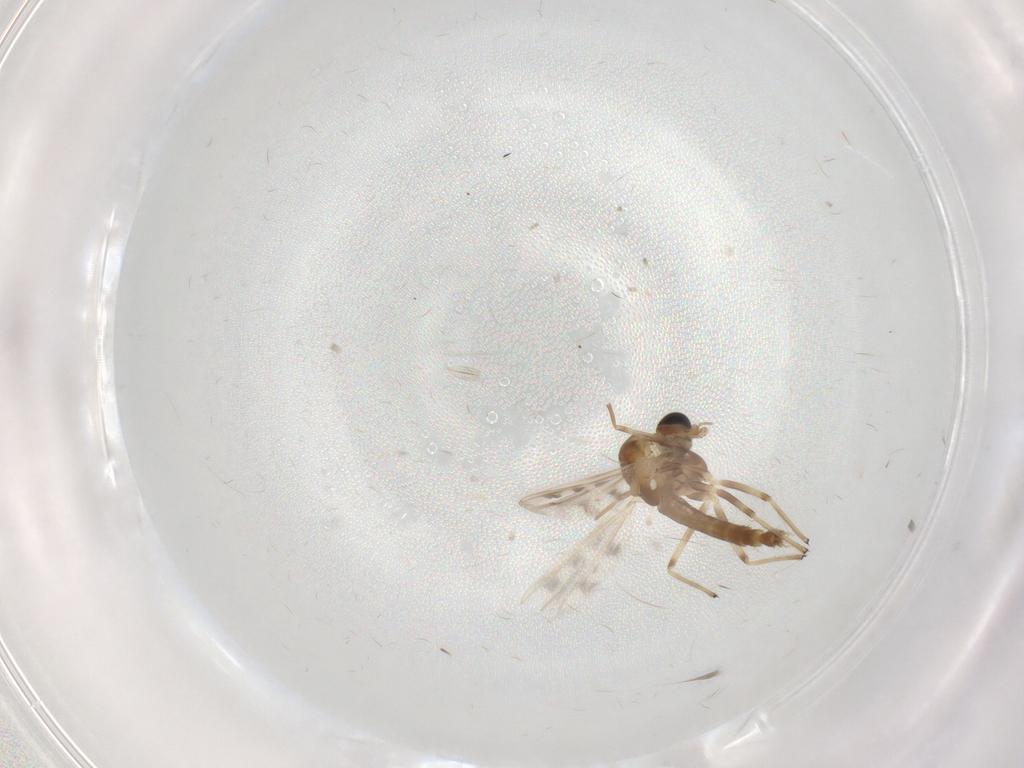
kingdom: Animalia
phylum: Arthropoda
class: Insecta
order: Diptera
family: Chironomidae
